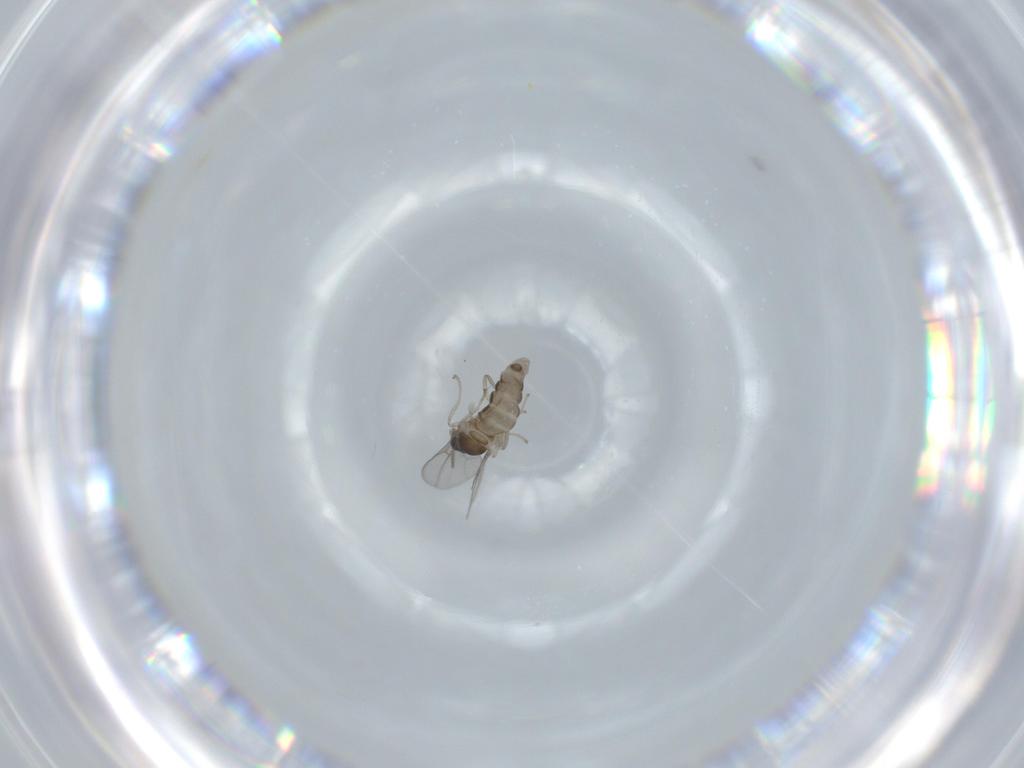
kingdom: Animalia
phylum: Arthropoda
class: Insecta
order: Diptera
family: Cecidomyiidae
